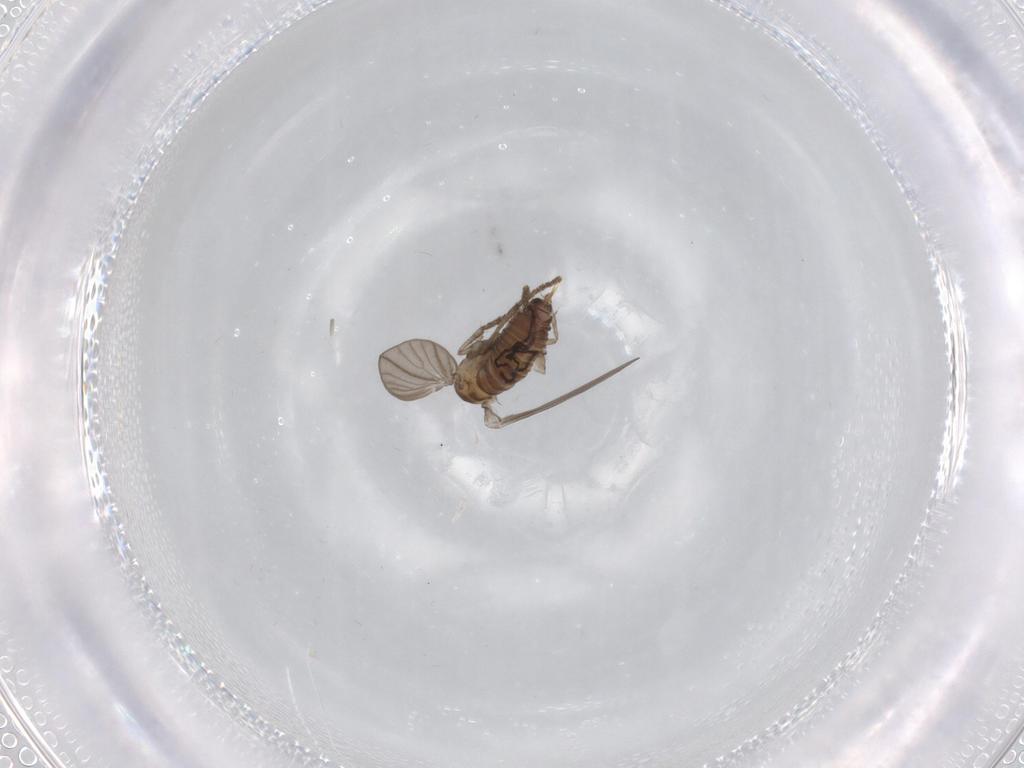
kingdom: Animalia
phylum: Arthropoda
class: Insecta
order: Diptera
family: Psychodidae
